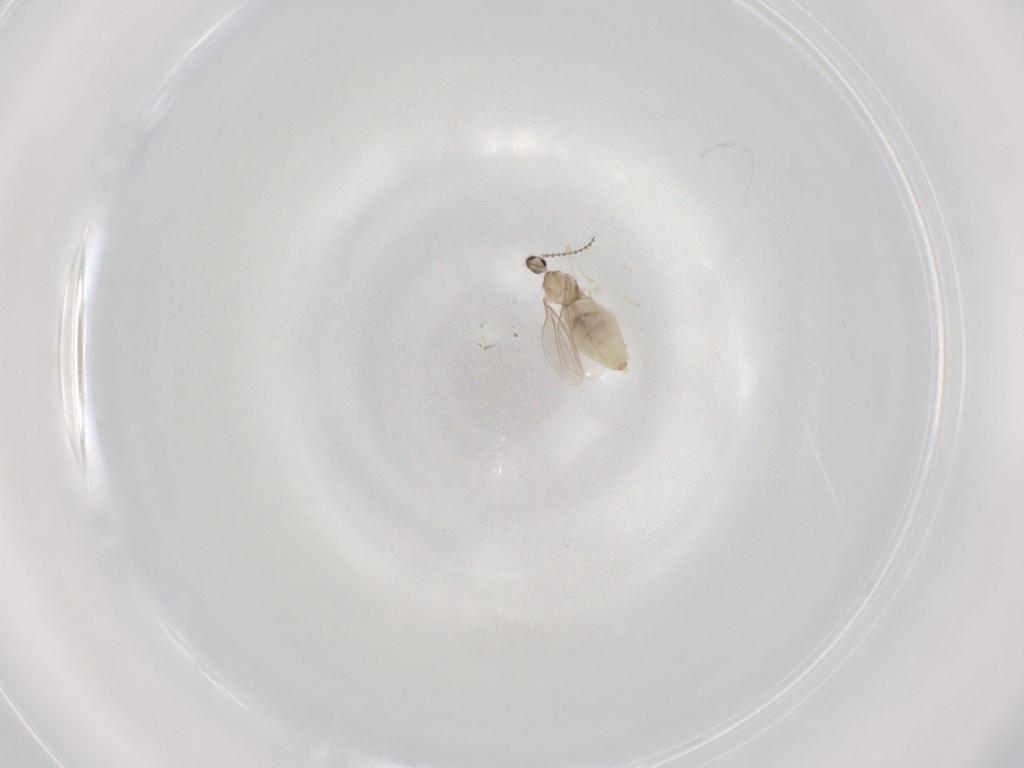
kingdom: Animalia
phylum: Arthropoda
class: Insecta
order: Diptera
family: Cecidomyiidae
